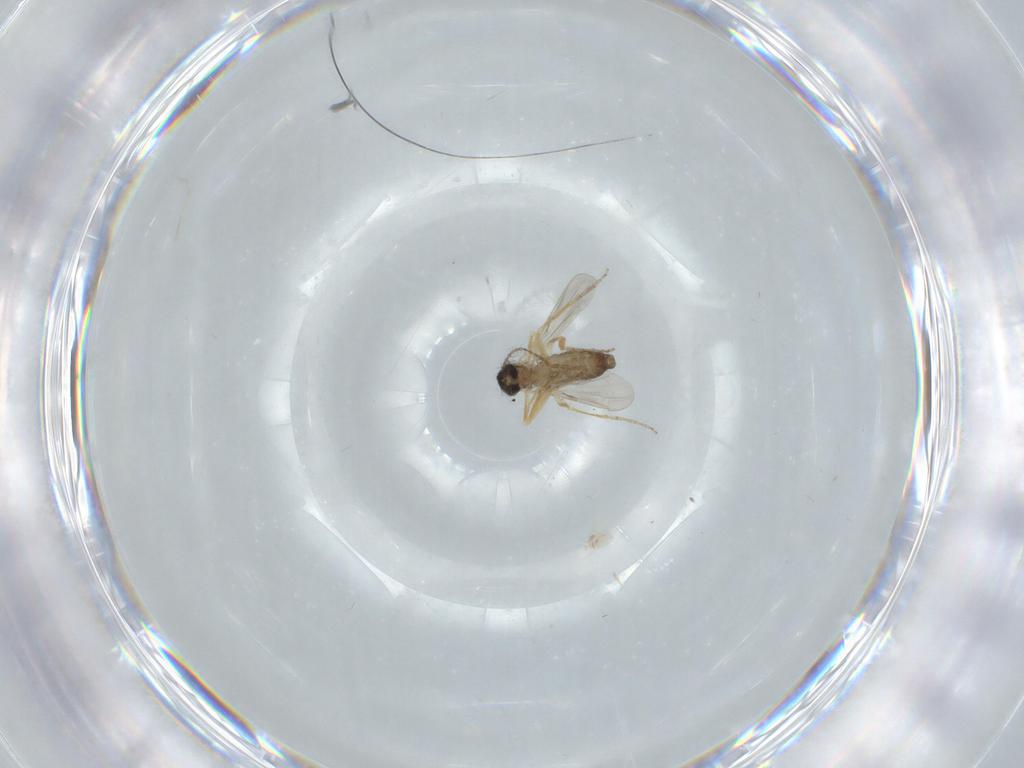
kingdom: Animalia
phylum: Arthropoda
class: Insecta
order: Diptera
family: Ceratopogonidae
